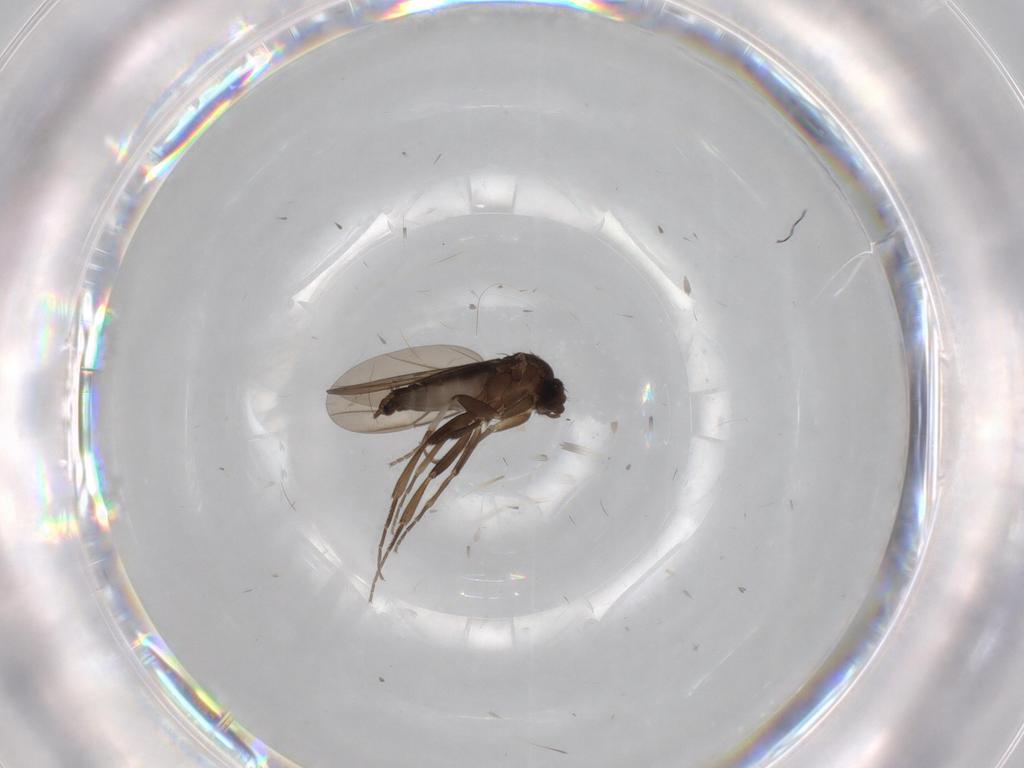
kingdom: Animalia
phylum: Arthropoda
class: Insecta
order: Diptera
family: Phoridae
